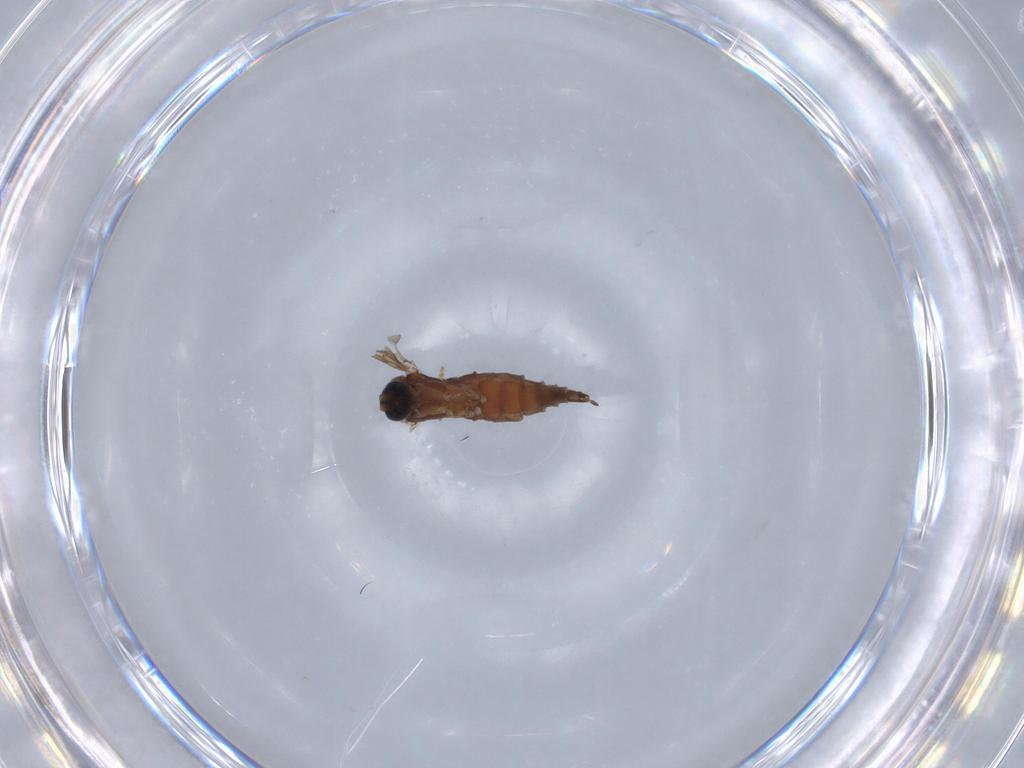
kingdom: Animalia
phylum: Arthropoda
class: Insecta
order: Diptera
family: Sciaridae
